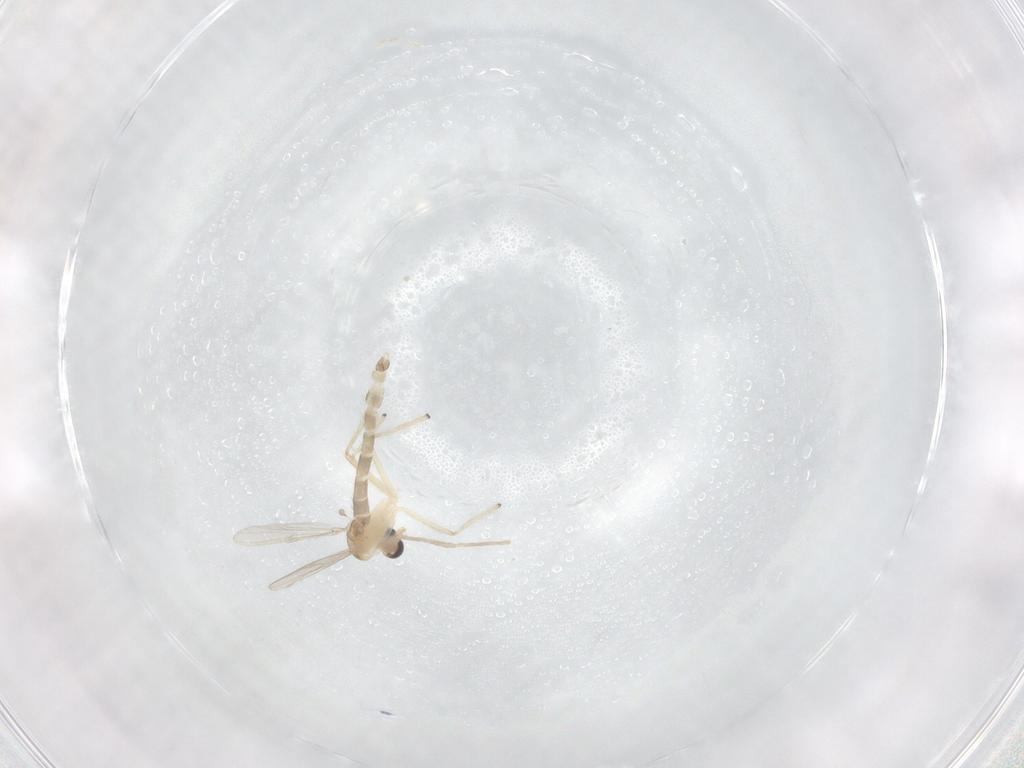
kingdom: Animalia
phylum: Arthropoda
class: Insecta
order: Diptera
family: Chironomidae
